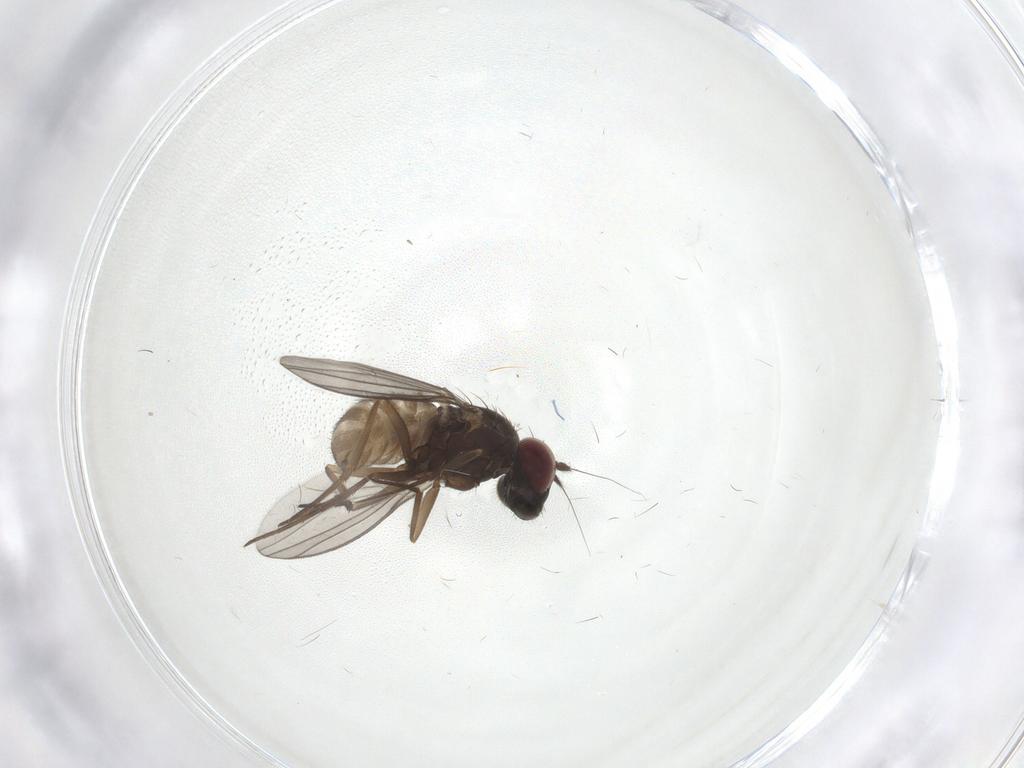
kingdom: Animalia
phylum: Arthropoda
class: Insecta
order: Diptera
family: Dolichopodidae
